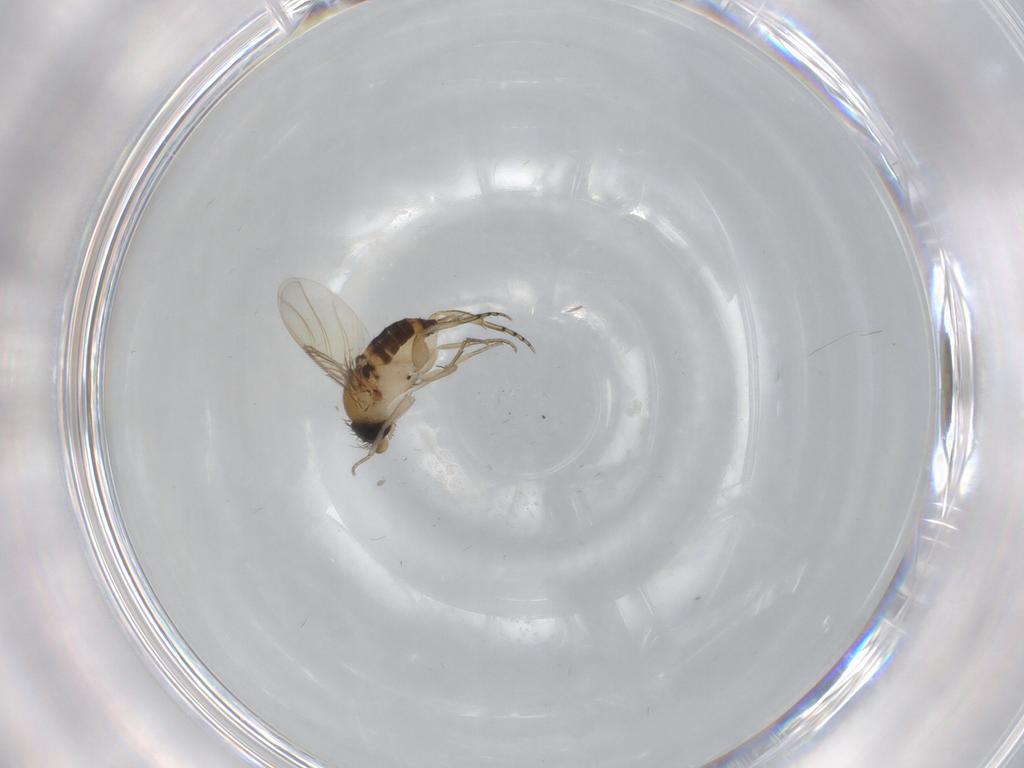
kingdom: Animalia
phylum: Arthropoda
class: Insecta
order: Diptera
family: Phoridae
